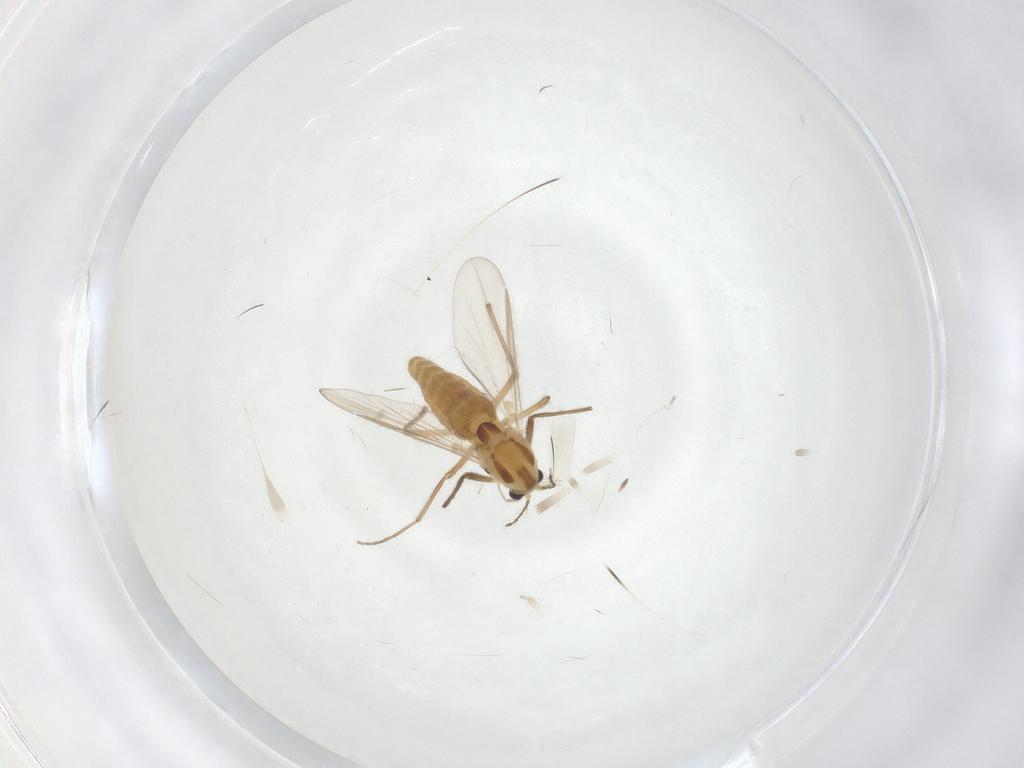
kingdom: Animalia
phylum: Arthropoda
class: Insecta
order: Diptera
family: Chironomidae
